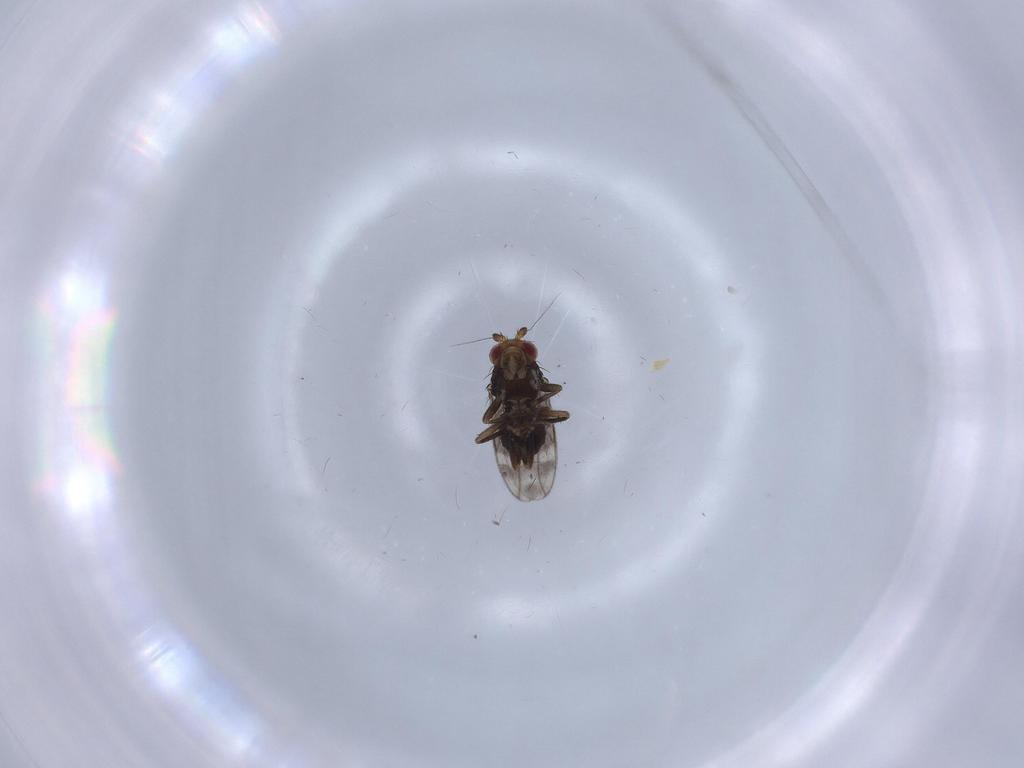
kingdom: Animalia
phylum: Arthropoda
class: Insecta
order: Diptera
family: Sphaeroceridae
